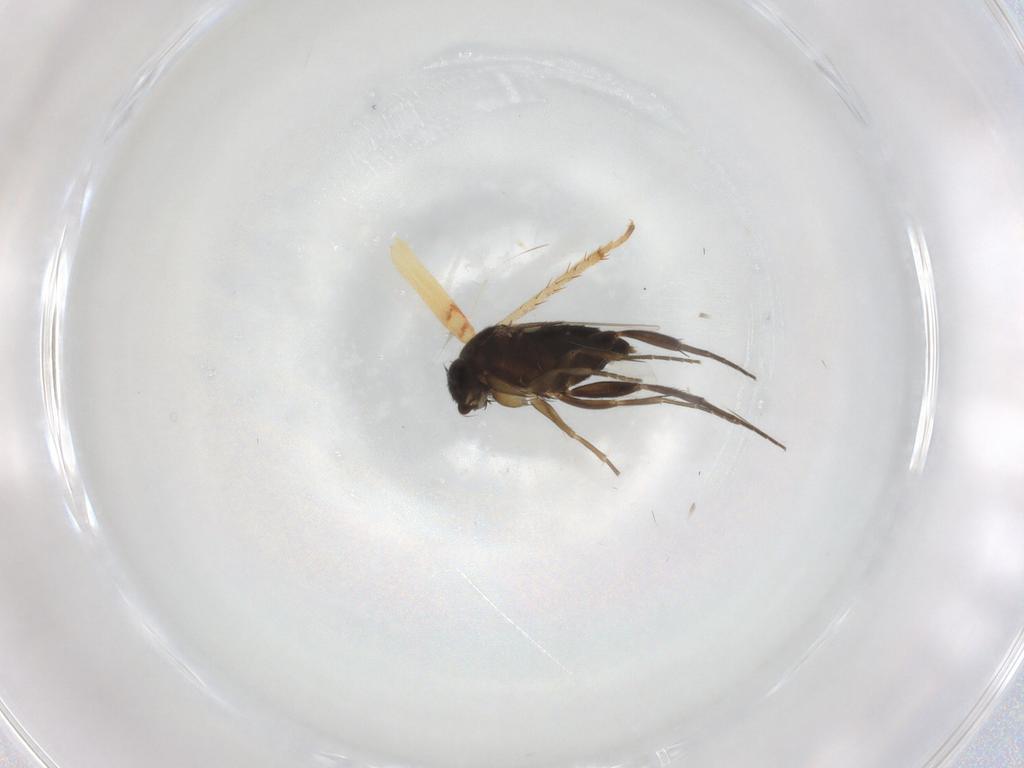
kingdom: Animalia
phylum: Arthropoda
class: Insecta
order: Diptera
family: Phoridae
